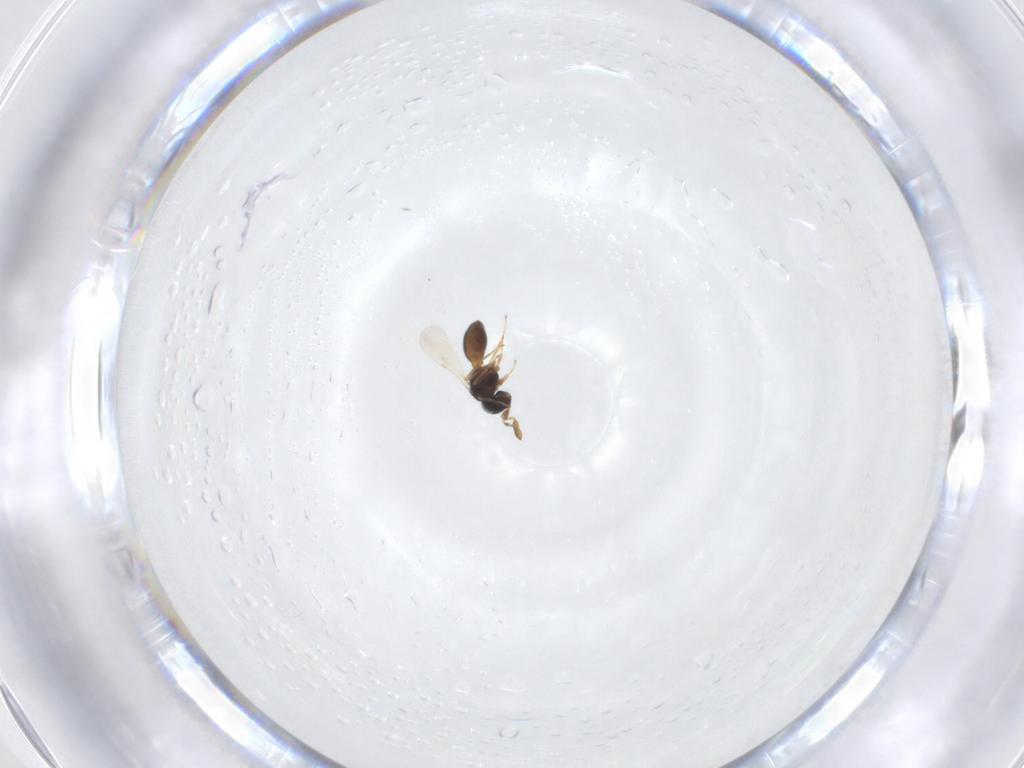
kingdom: Animalia
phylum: Arthropoda
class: Insecta
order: Hymenoptera
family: Scelionidae
